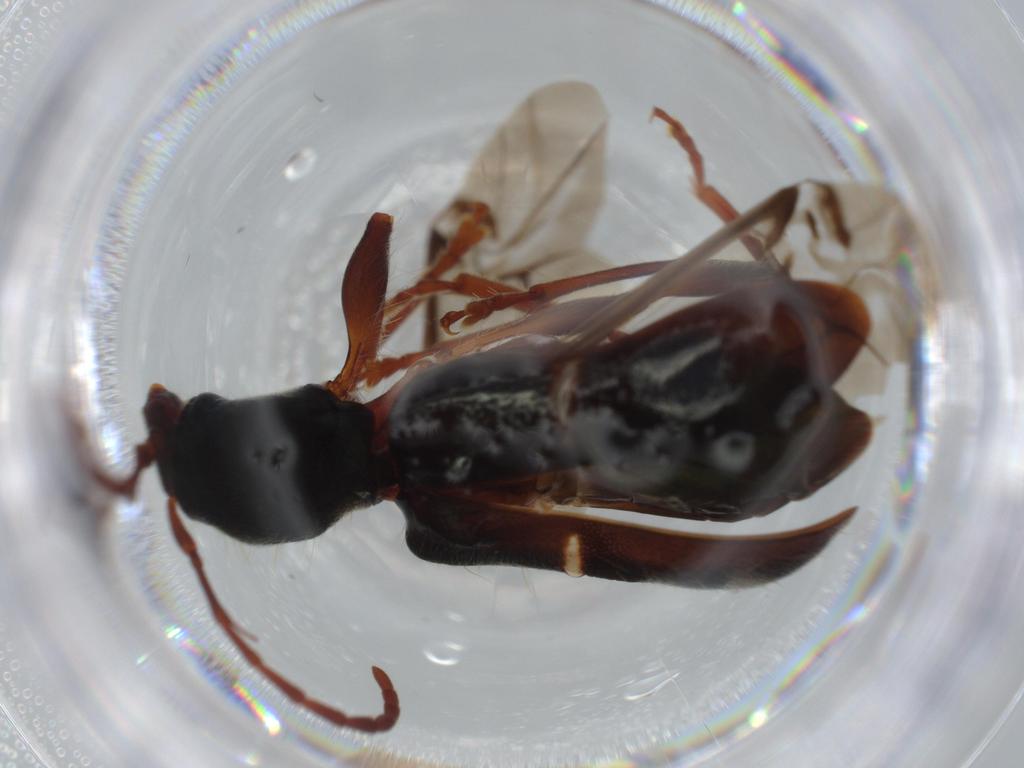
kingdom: Animalia
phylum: Arthropoda
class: Insecta
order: Coleoptera
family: Cerambycidae
